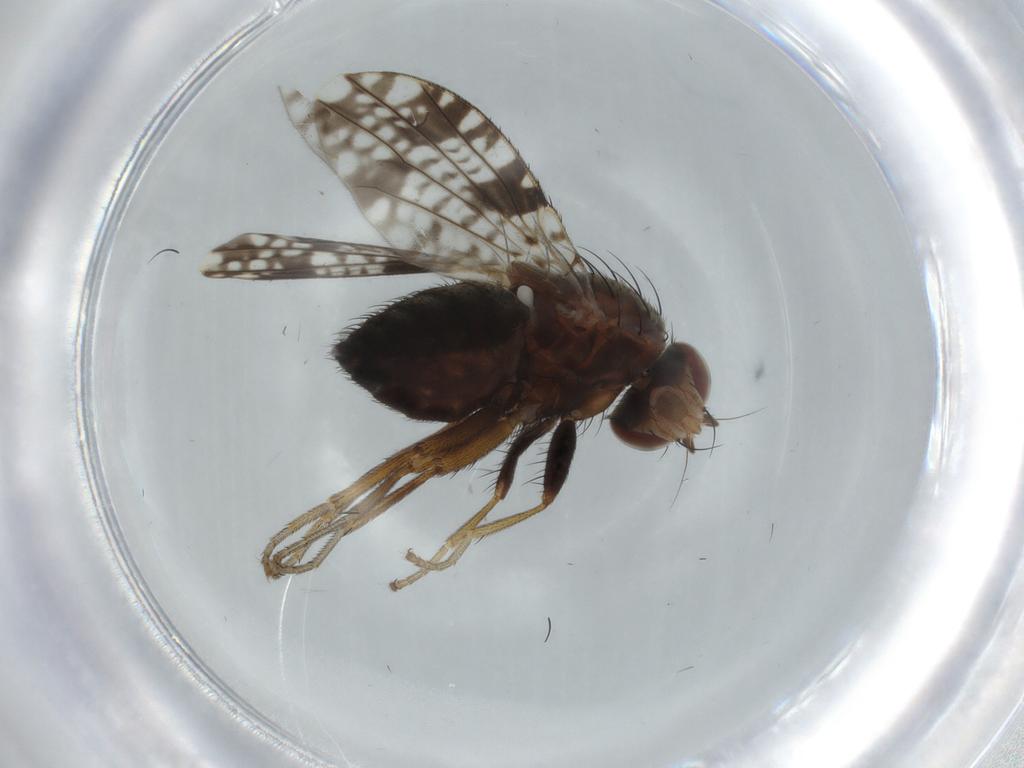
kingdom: Animalia
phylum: Arthropoda
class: Insecta
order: Diptera
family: Tephritidae
